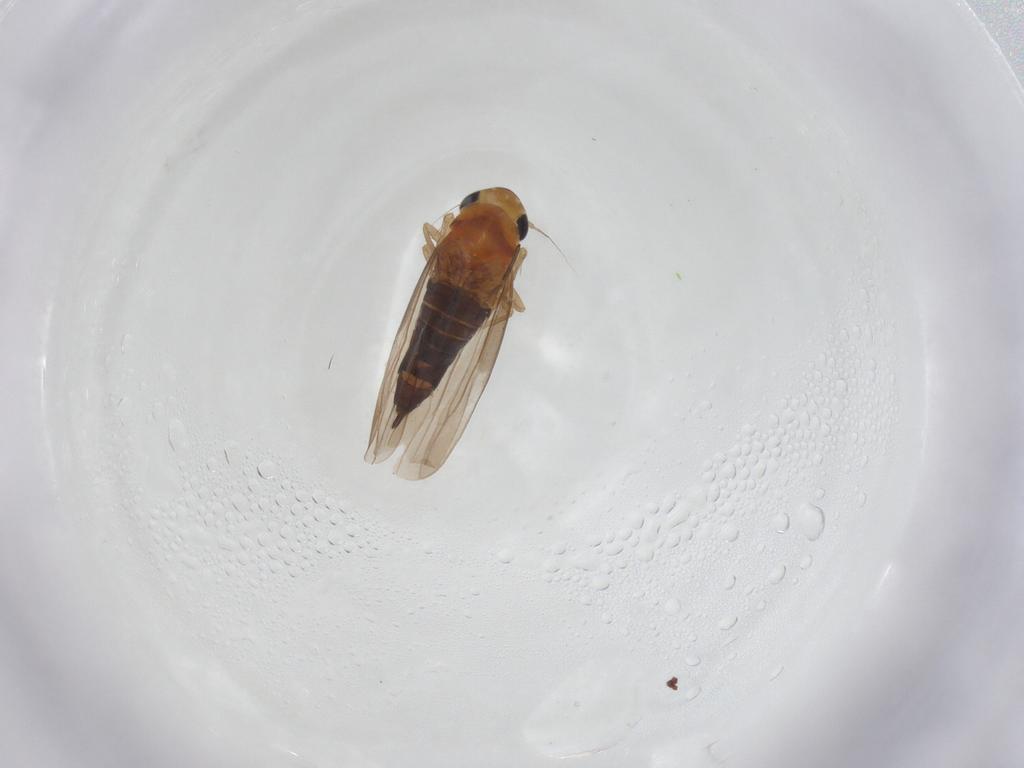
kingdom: Animalia
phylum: Arthropoda
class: Insecta
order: Hemiptera
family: Cicadellidae
